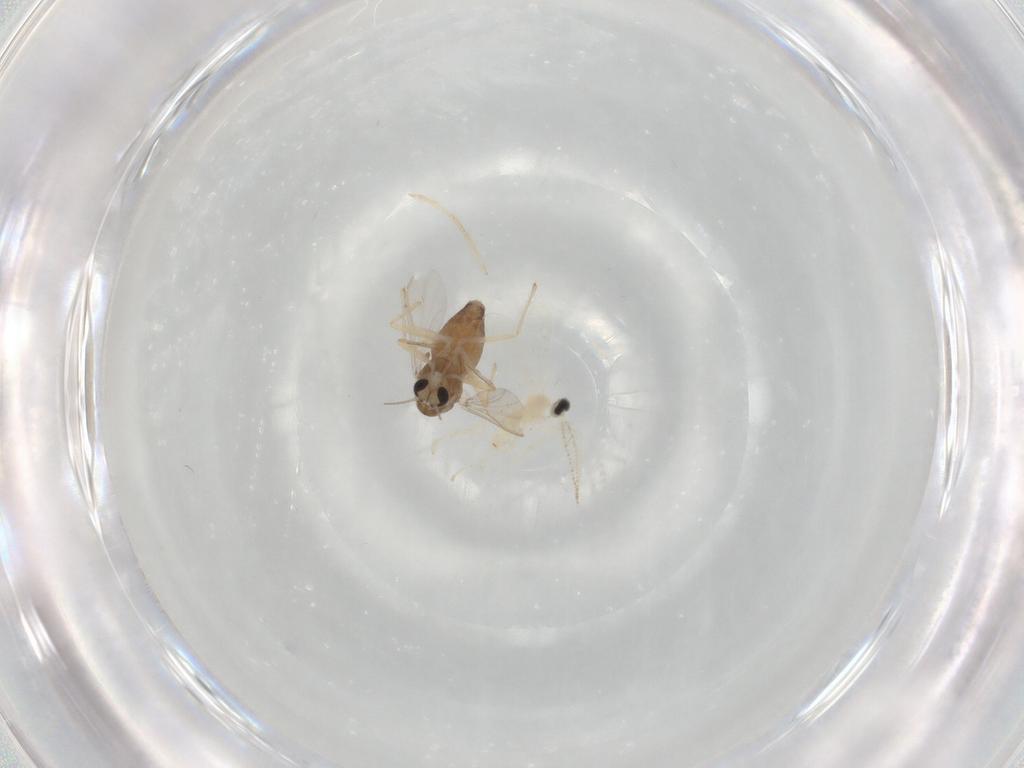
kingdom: Animalia
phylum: Arthropoda
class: Insecta
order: Diptera
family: Chironomidae
